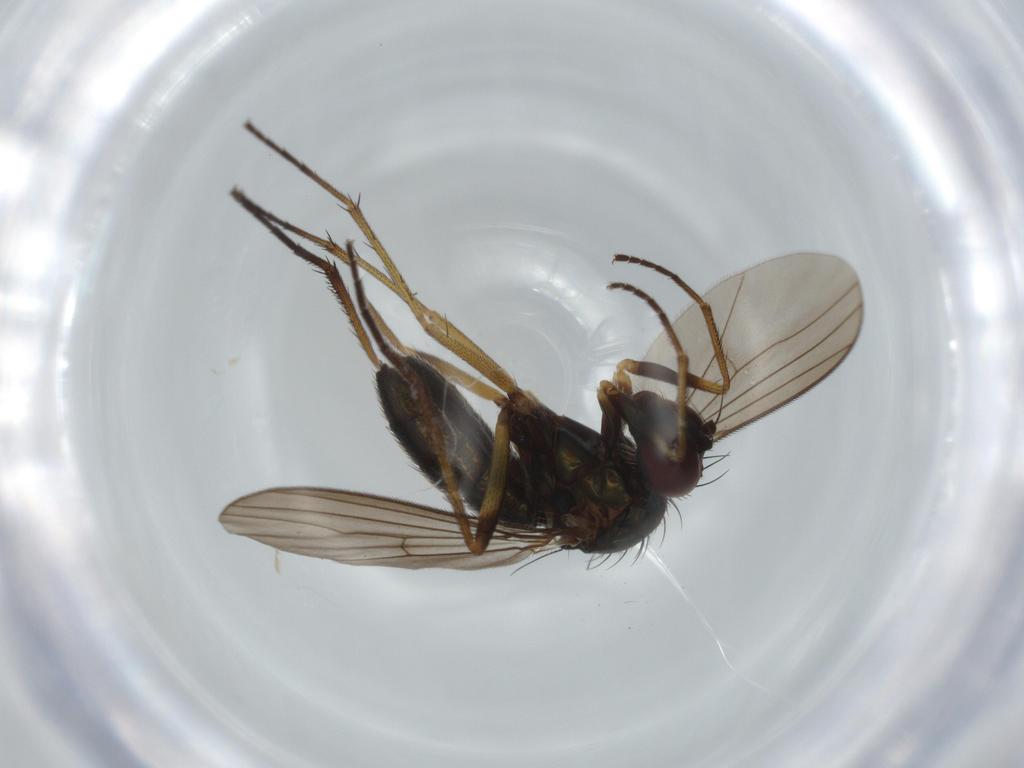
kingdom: Animalia
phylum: Arthropoda
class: Insecta
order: Diptera
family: Dolichopodidae
